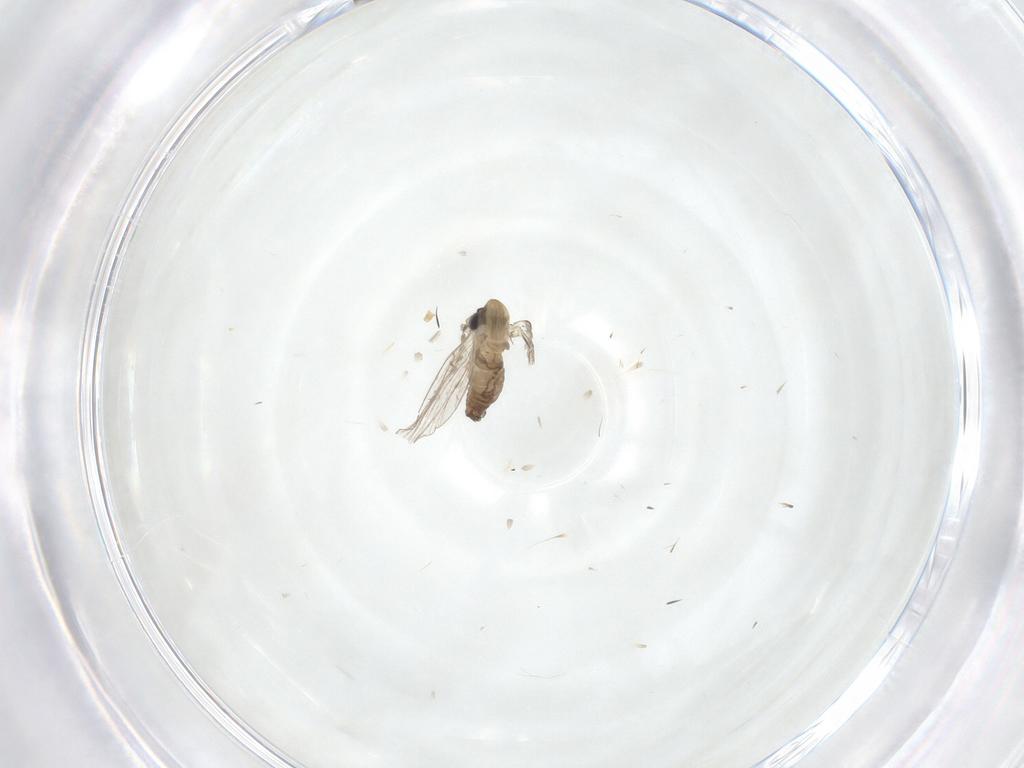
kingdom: Animalia
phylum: Arthropoda
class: Insecta
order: Diptera
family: Psychodidae
